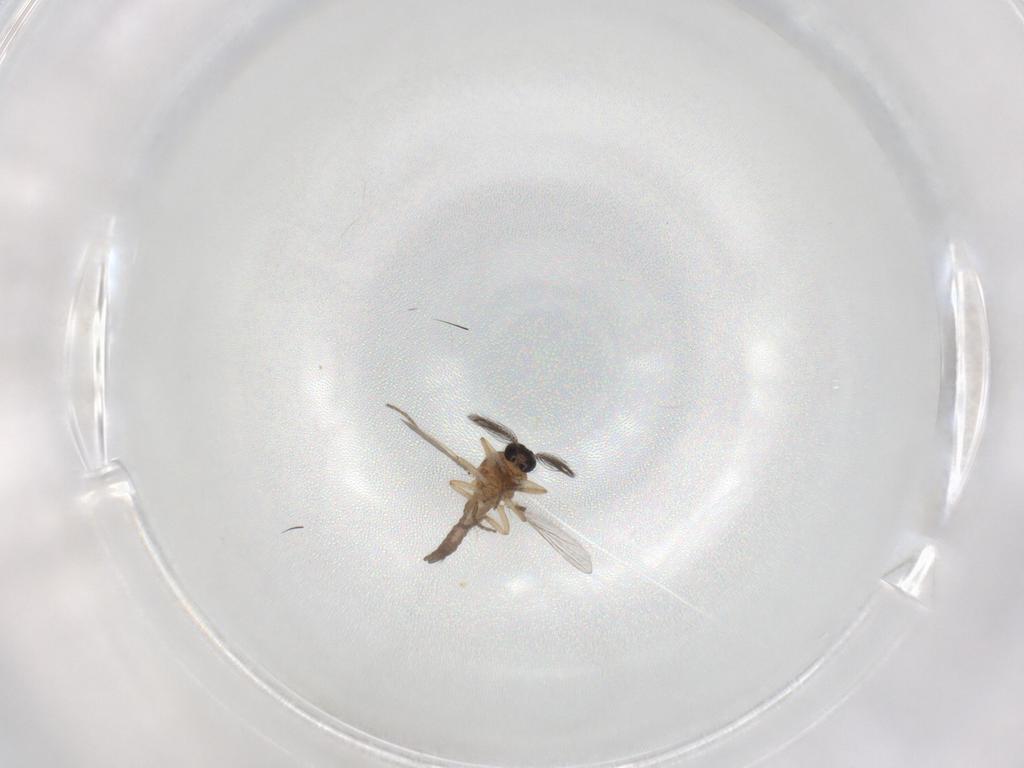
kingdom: Animalia
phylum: Arthropoda
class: Insecta
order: Diptera
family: Ceratopogonidae
